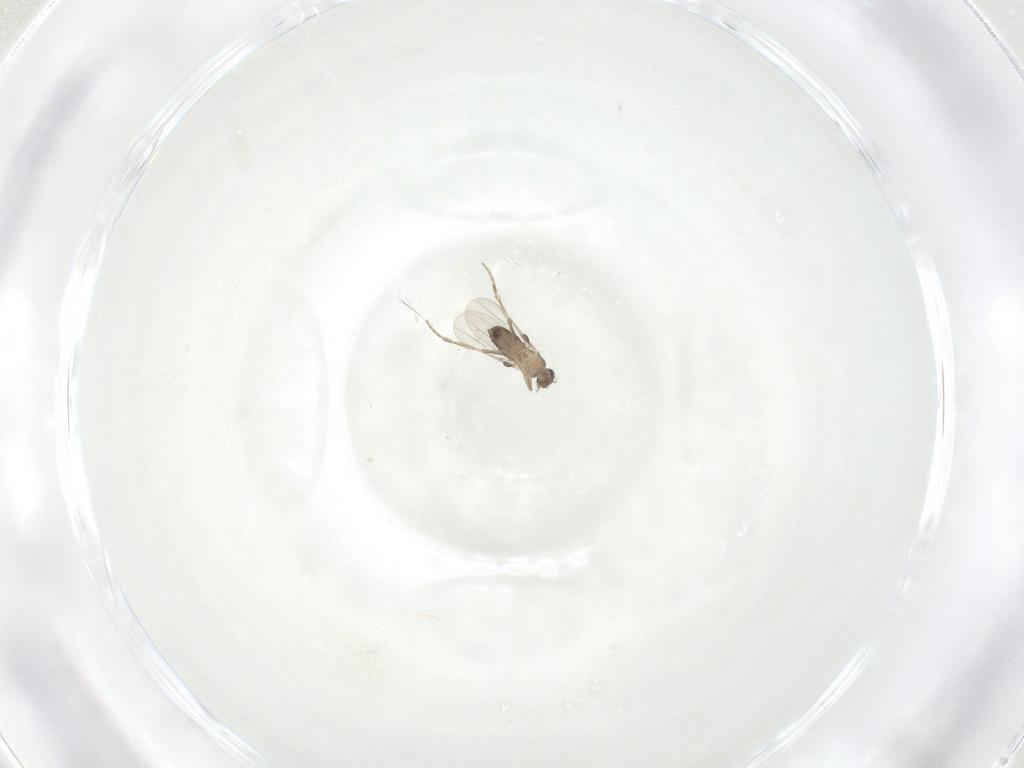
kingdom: Animalia
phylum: Arthropoda
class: Insecta
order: Diptera
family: Phoridae
